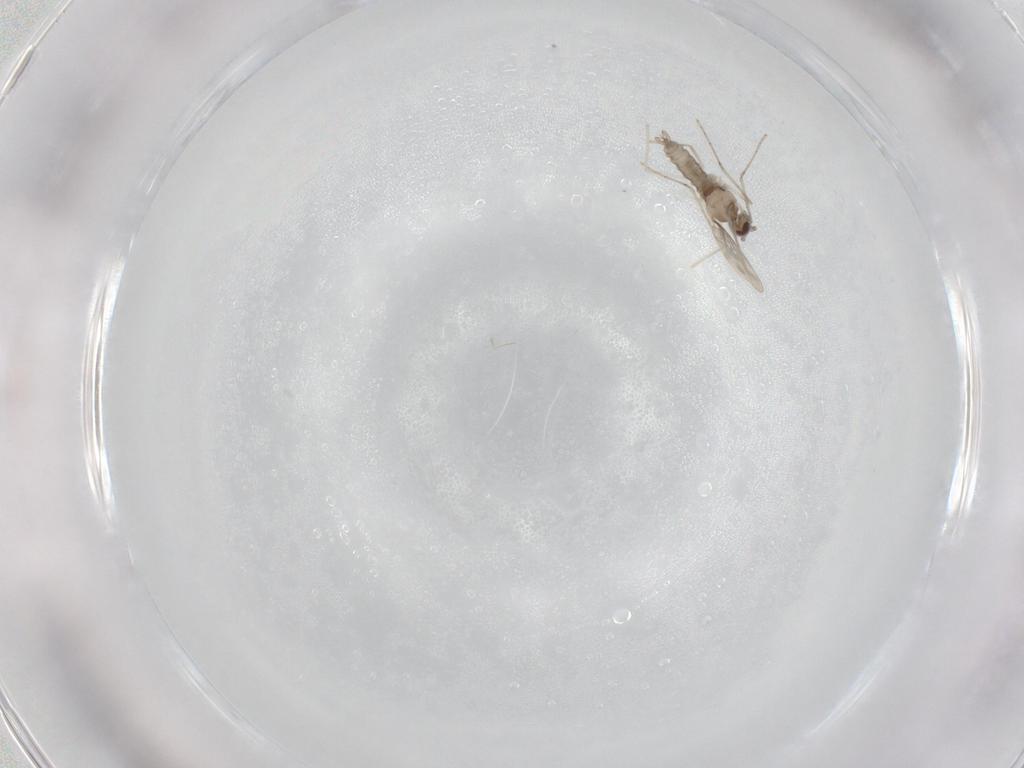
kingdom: Animalia
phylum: Arthropoda
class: Insecta
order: Diptera
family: Cecidomyiidae
